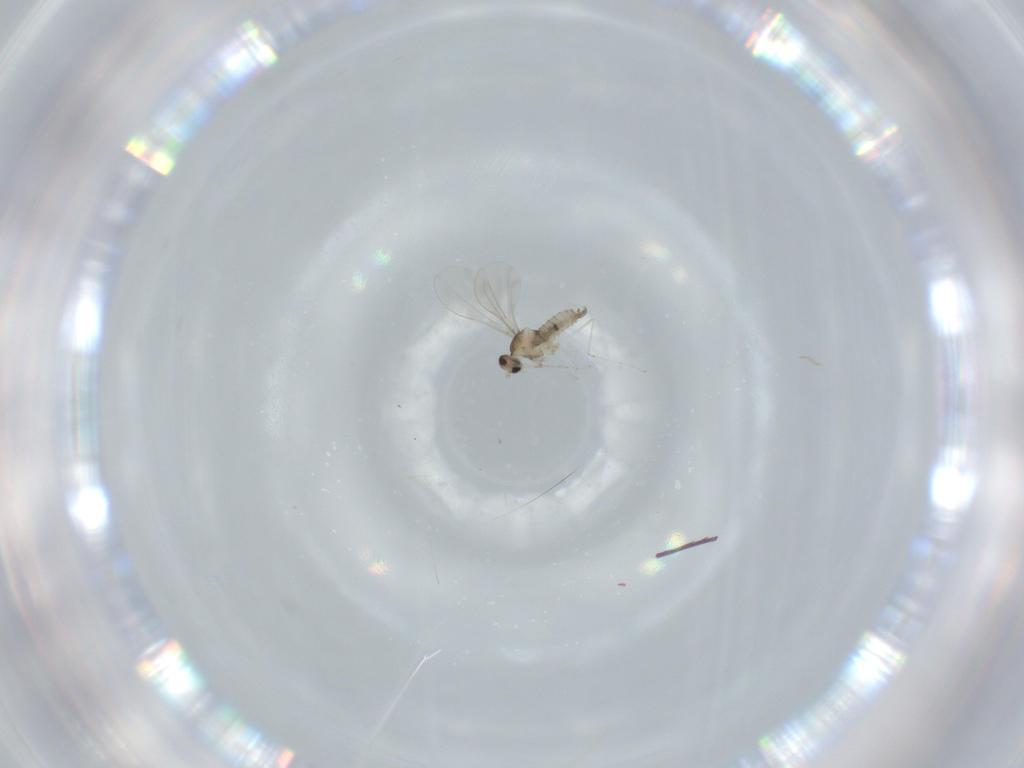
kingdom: Animalia
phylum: Arthropoda
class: Insecta
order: Diptera
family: Cecidomyiidae
